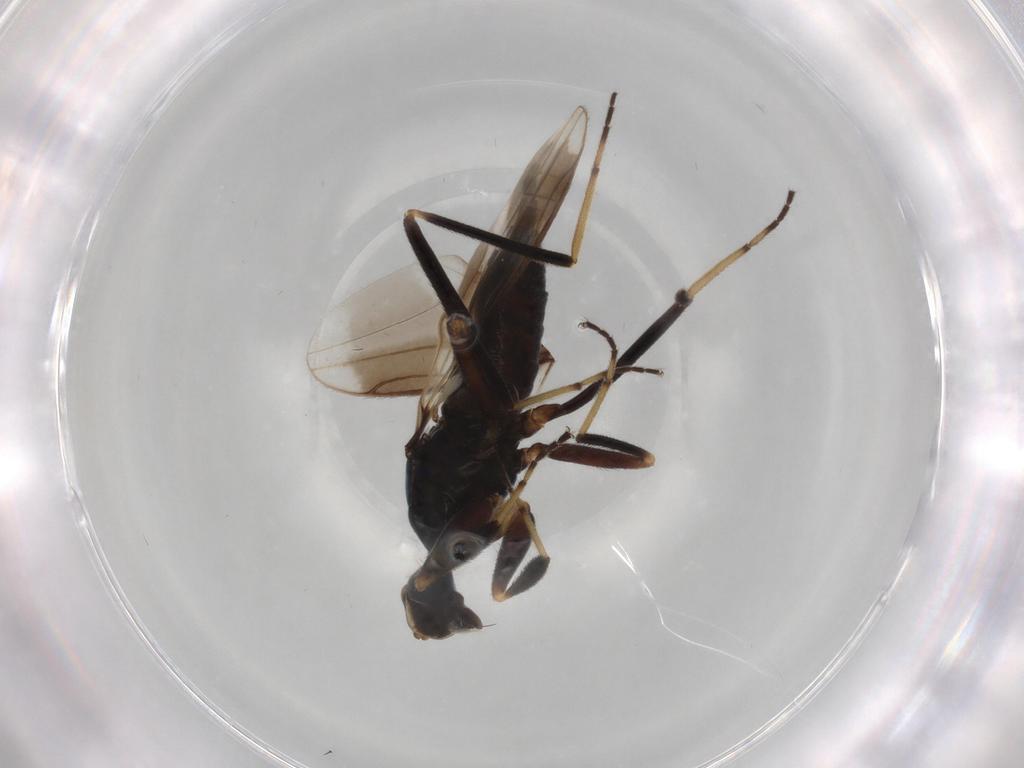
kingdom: Animalia
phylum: Arthropoda
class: Insecta
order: Diptera
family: Hybotidae
